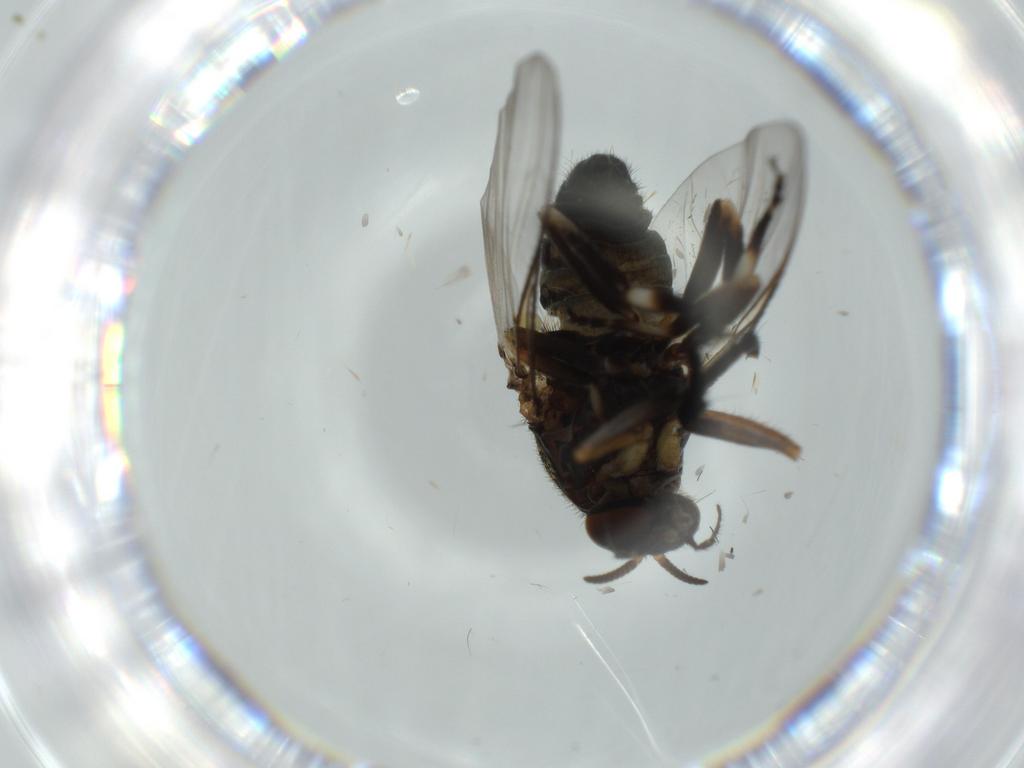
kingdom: Animalia
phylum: Arthropoda
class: Insecta
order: Diptera
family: Milichiidae
